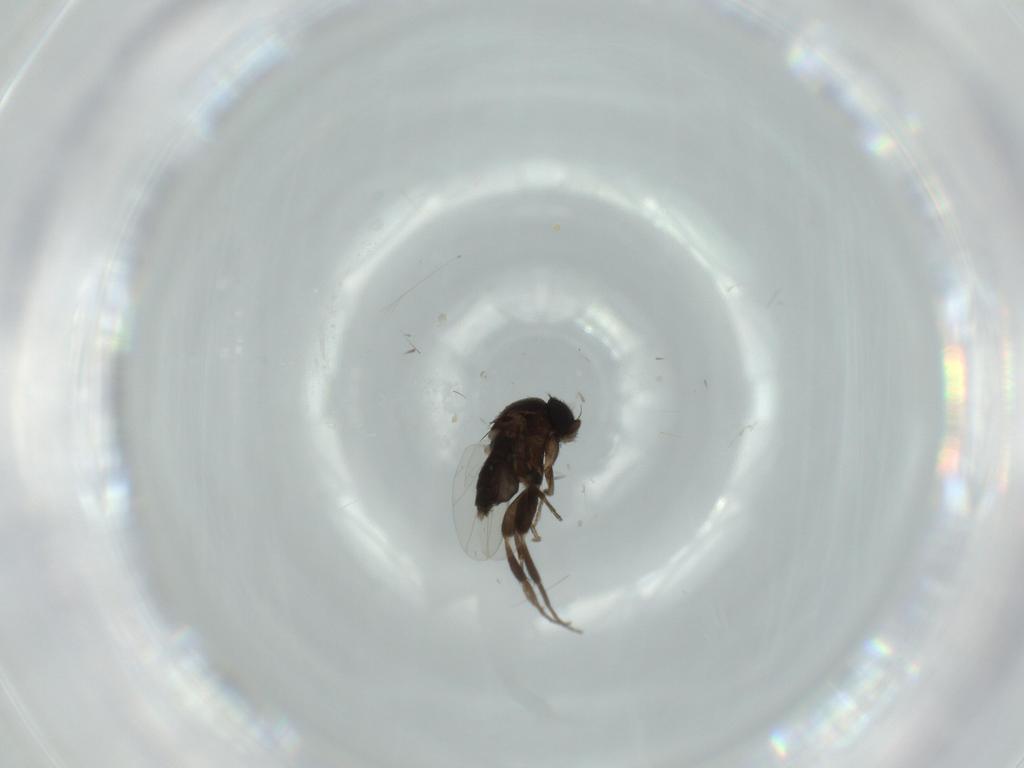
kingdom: Animalia
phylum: Arthropoda
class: Insecta
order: Diptera
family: Phoridae
